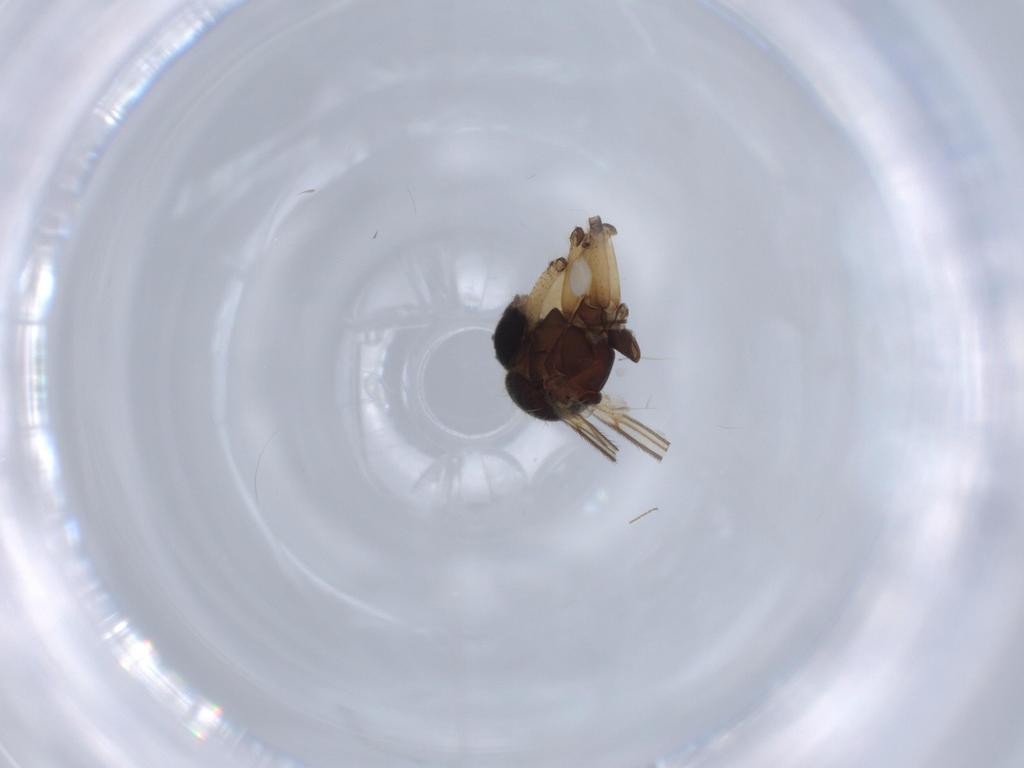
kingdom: Animalia
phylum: Arthropoda
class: Insecta
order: Diptera
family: Cecidomyiidae
